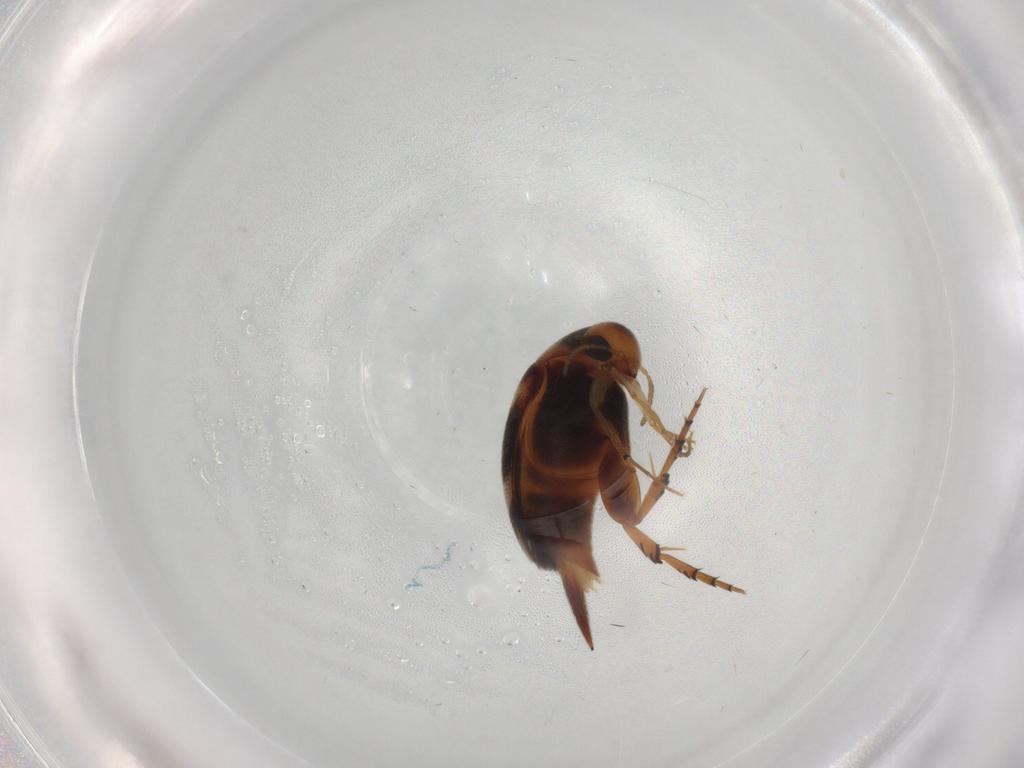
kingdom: Animalia
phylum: Arthropoda
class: Insecta
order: Coleoptera
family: Mordellidae
